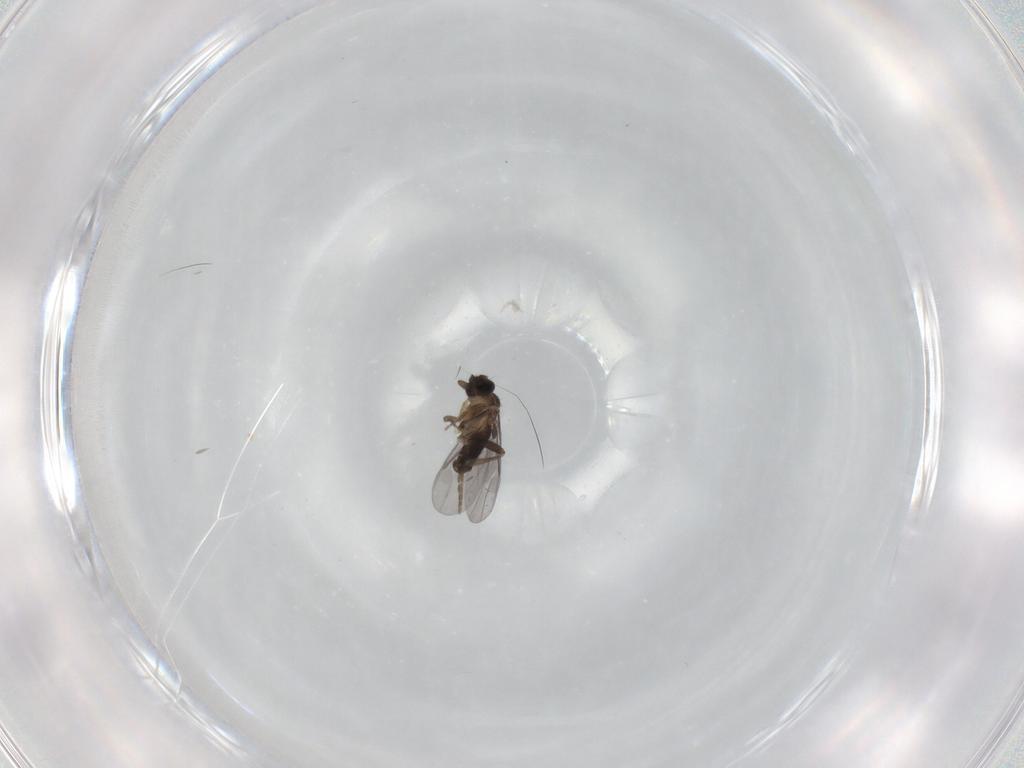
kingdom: Animalia
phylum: Arthropoda
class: Insecta
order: Diptera
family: Ceratopogonidae
